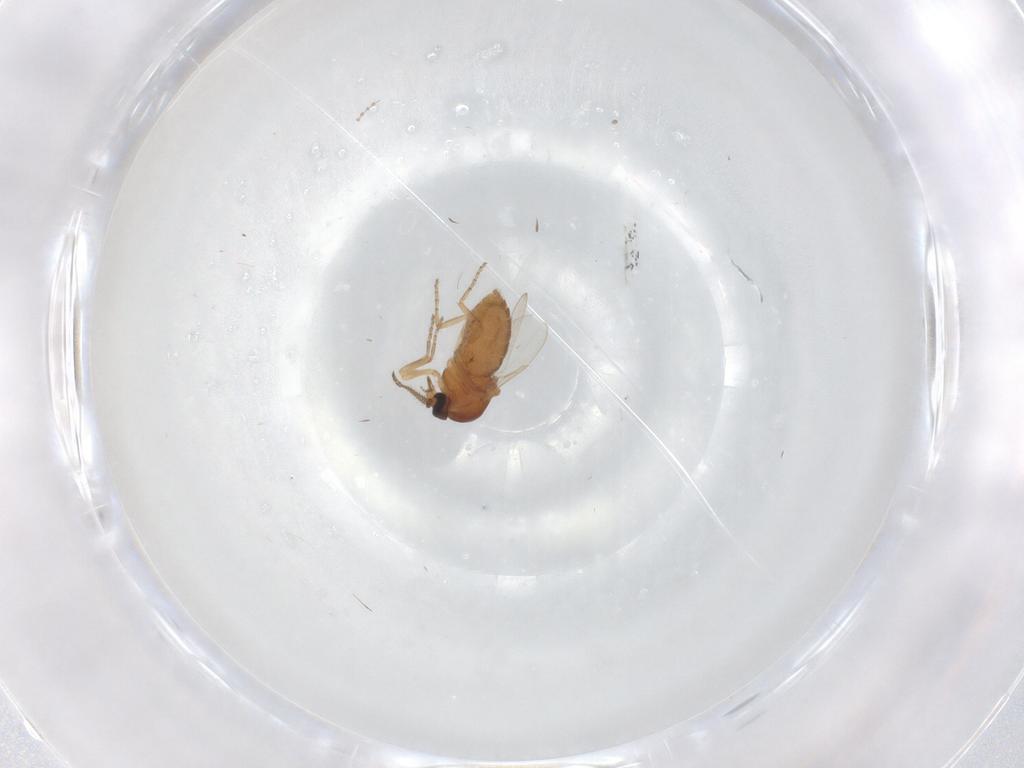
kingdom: Animalia
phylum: Arthropoda
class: Insecta
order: Diptera
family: Ceratopogonidae
